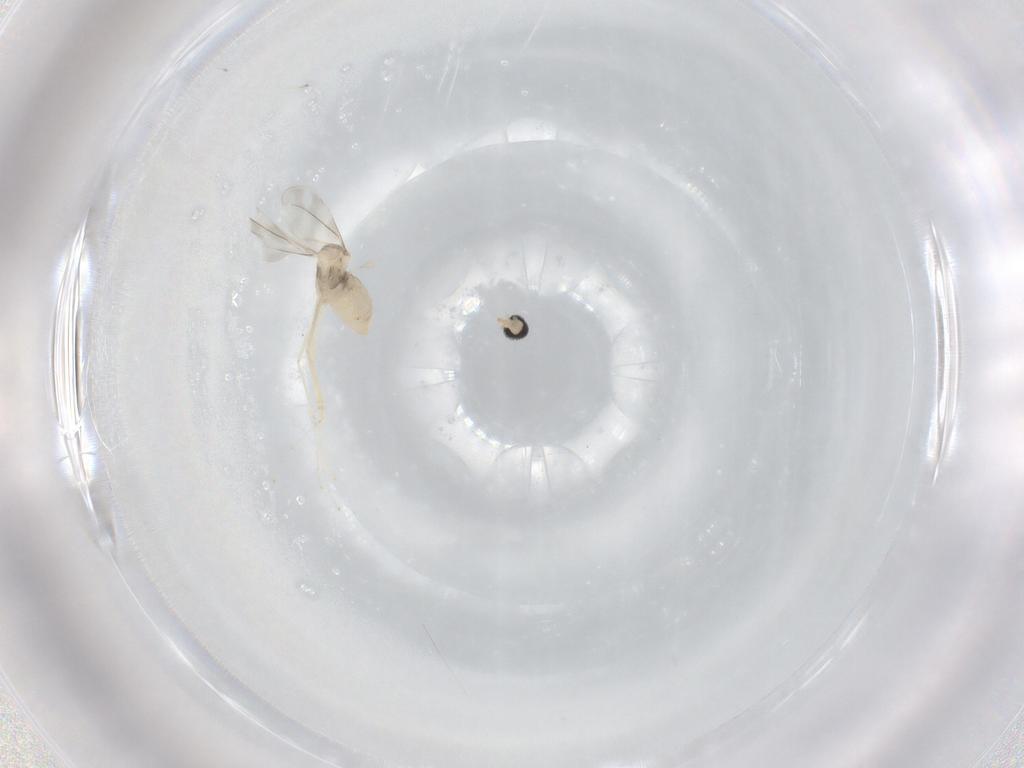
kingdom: Animalia
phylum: Arthropoda
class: Insecta
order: Diptera
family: Cecidomyiidae
